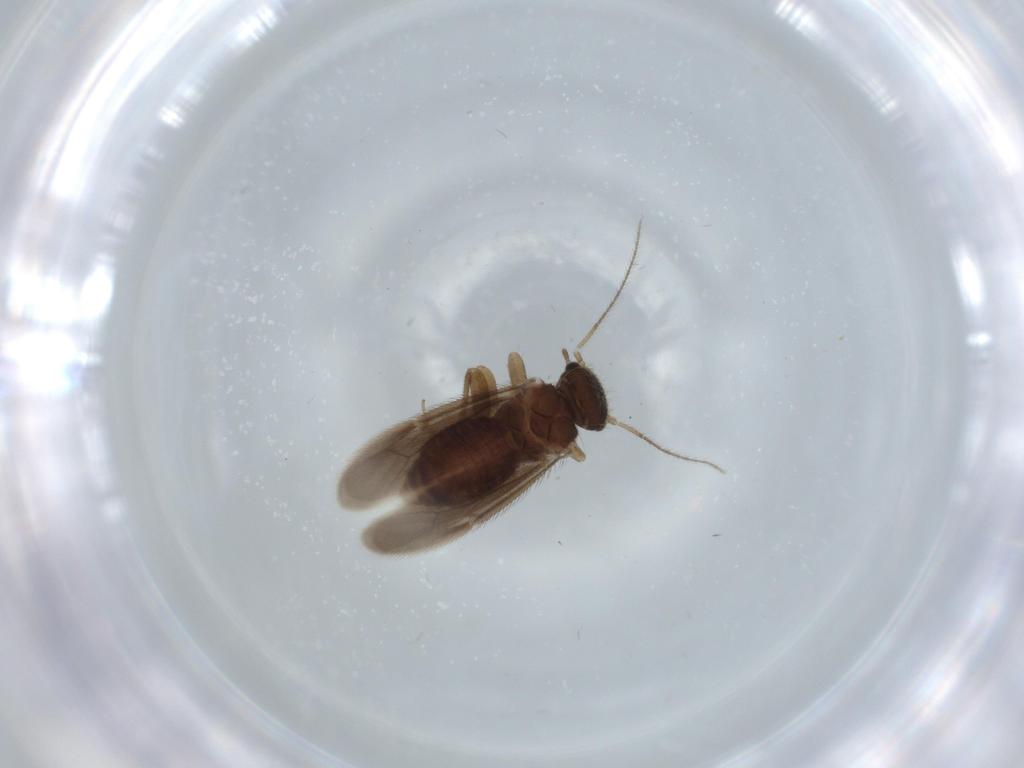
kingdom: Animalia
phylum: Arthropoda
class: Insecta
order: Psocodea
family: Archipsocidae
